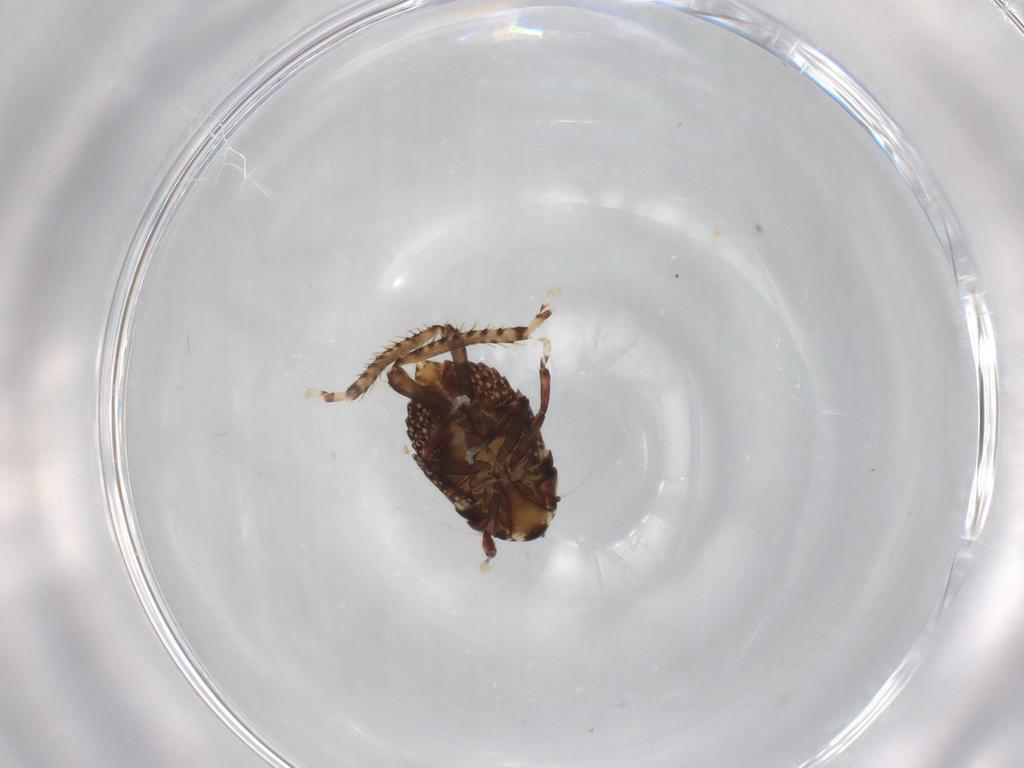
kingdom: Animalia
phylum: Arthropoda
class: Insecta
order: Hemiptera
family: Cicadellidae
